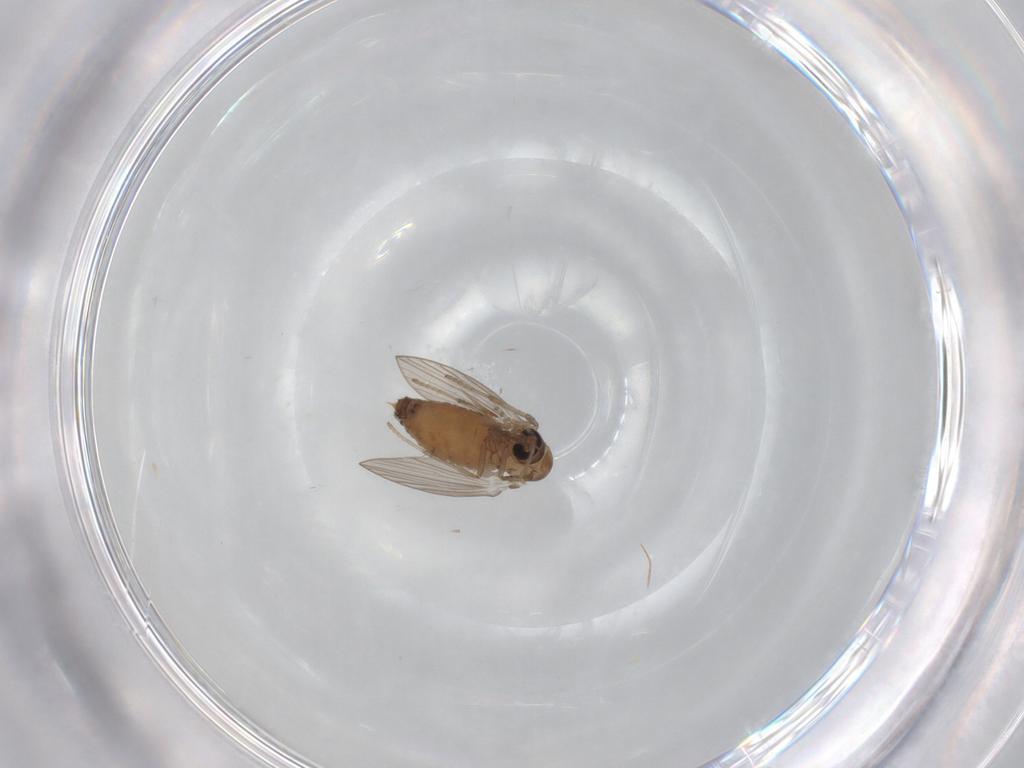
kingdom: Animalia
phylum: Arthropoda
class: Insecta
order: Diptera
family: Psychodidae
